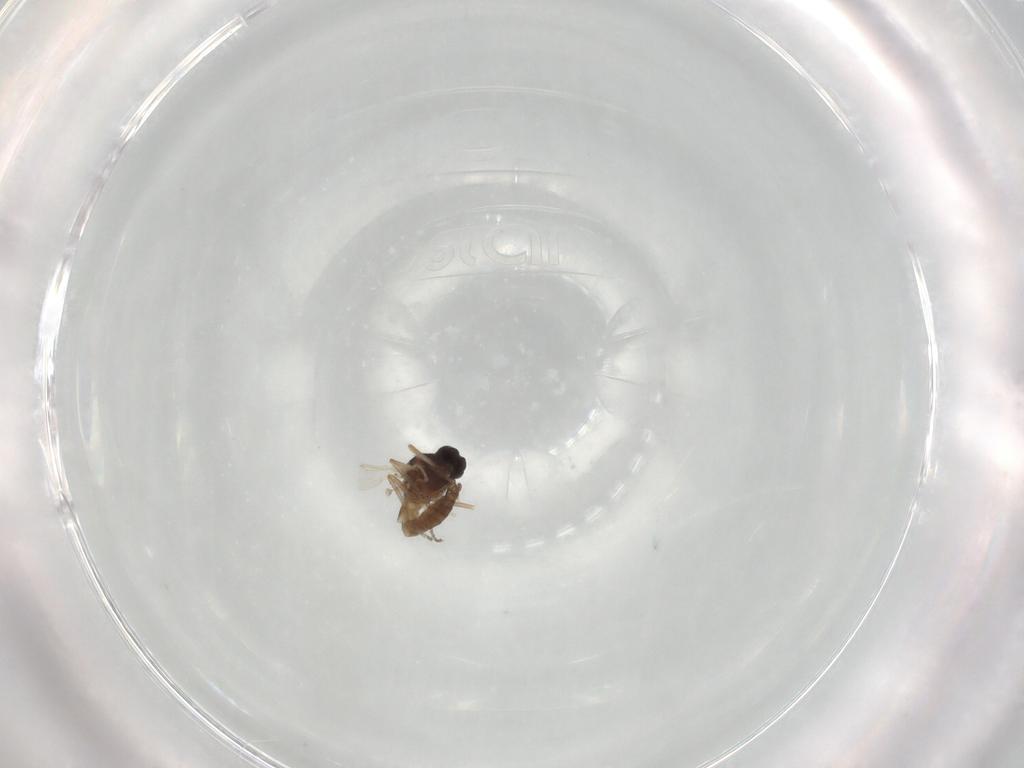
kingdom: Animalia
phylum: Arthropoda
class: Insecta
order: Diptera
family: Ceratopogonidae
